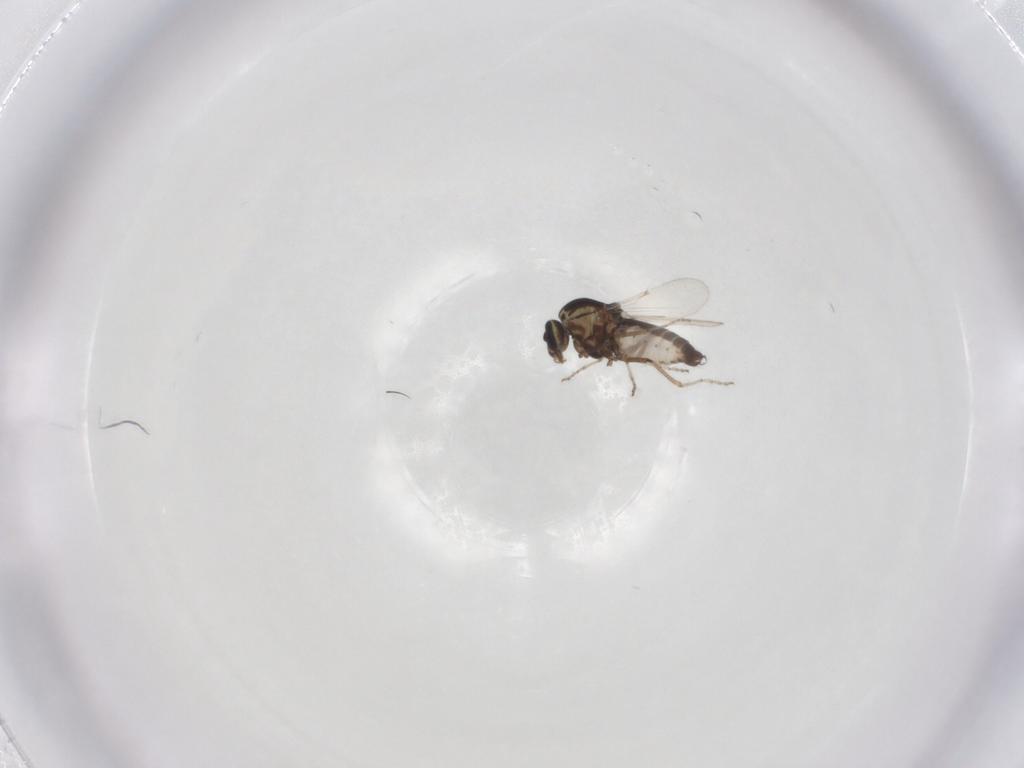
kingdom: Animalia
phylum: Arthropoda
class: Insecta
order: Diptera
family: Ceratopogonidae
